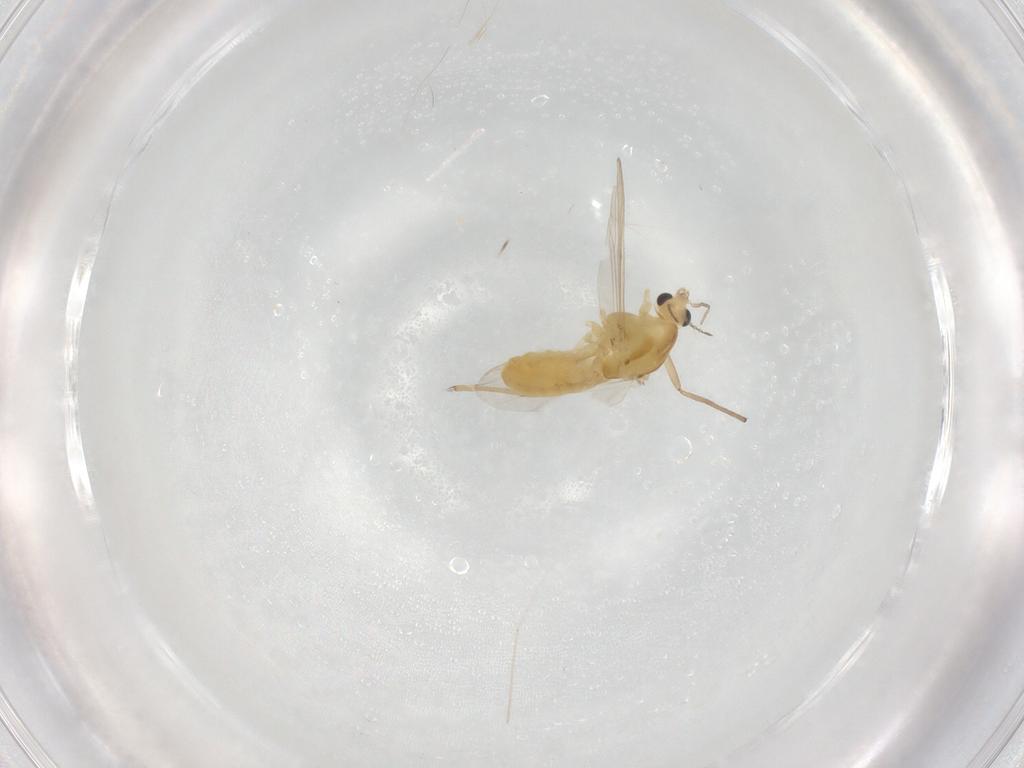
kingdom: Animalia
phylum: Arthropoda
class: Insecta
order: Diptera
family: Chironomidae
